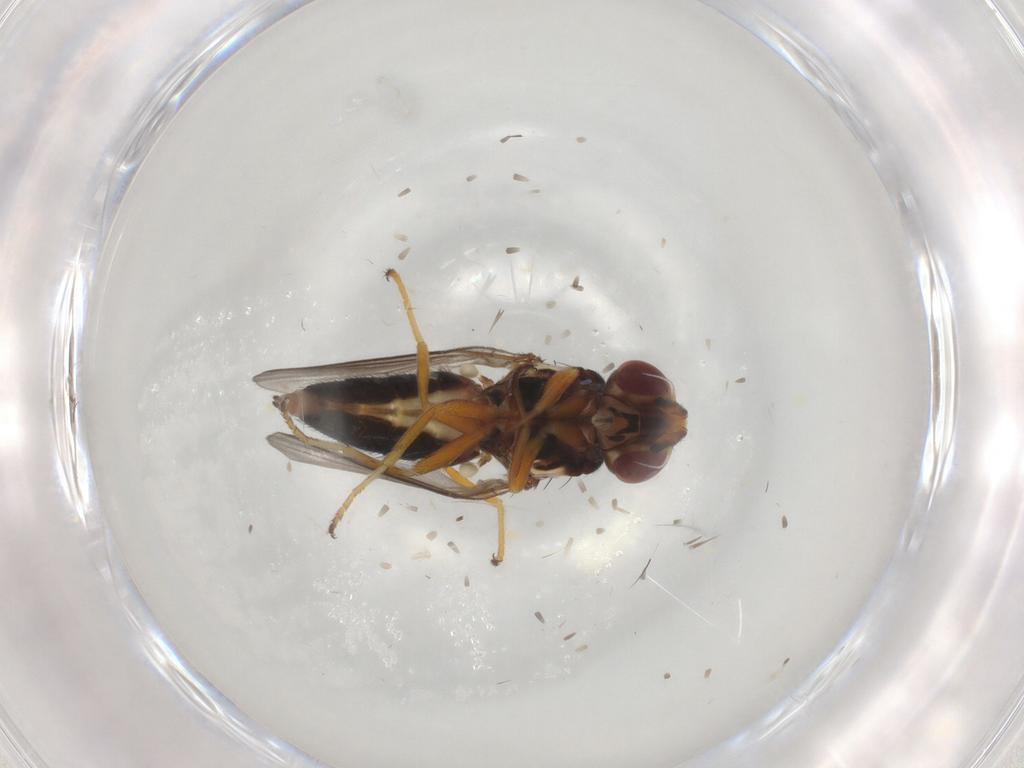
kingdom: Animalia
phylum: Arthropoda
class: Insecta
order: Diptera
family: Chloropidae
